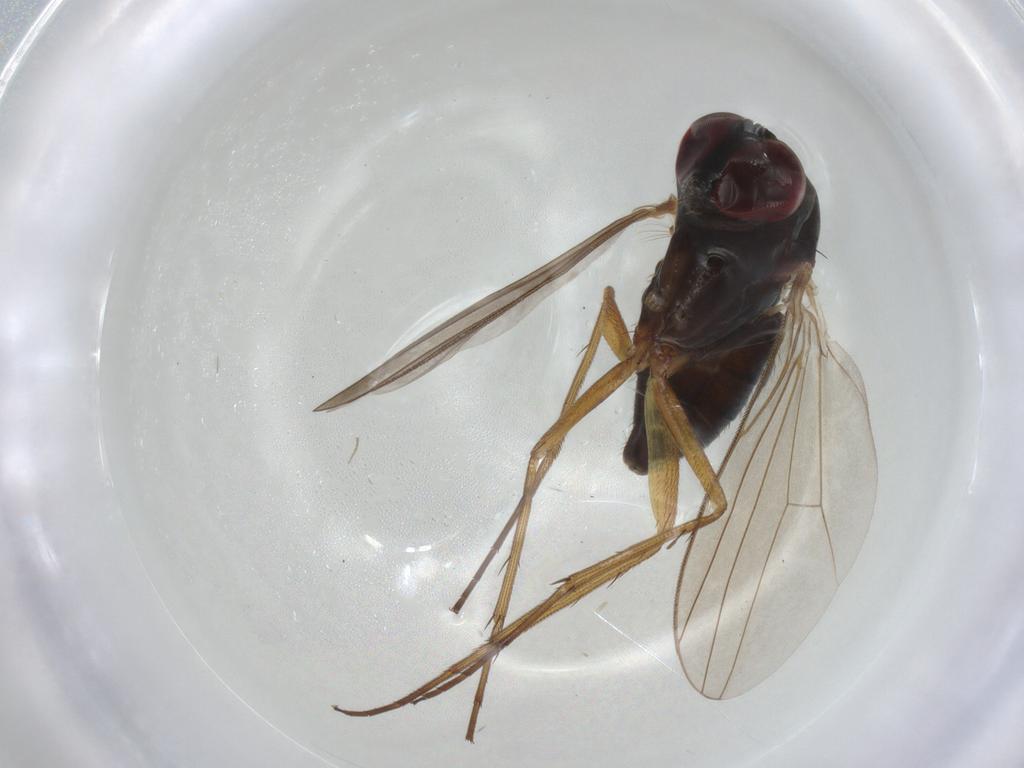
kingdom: Animalia
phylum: Arthropoda
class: Insecta
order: Diptera
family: Dolichopodidae
